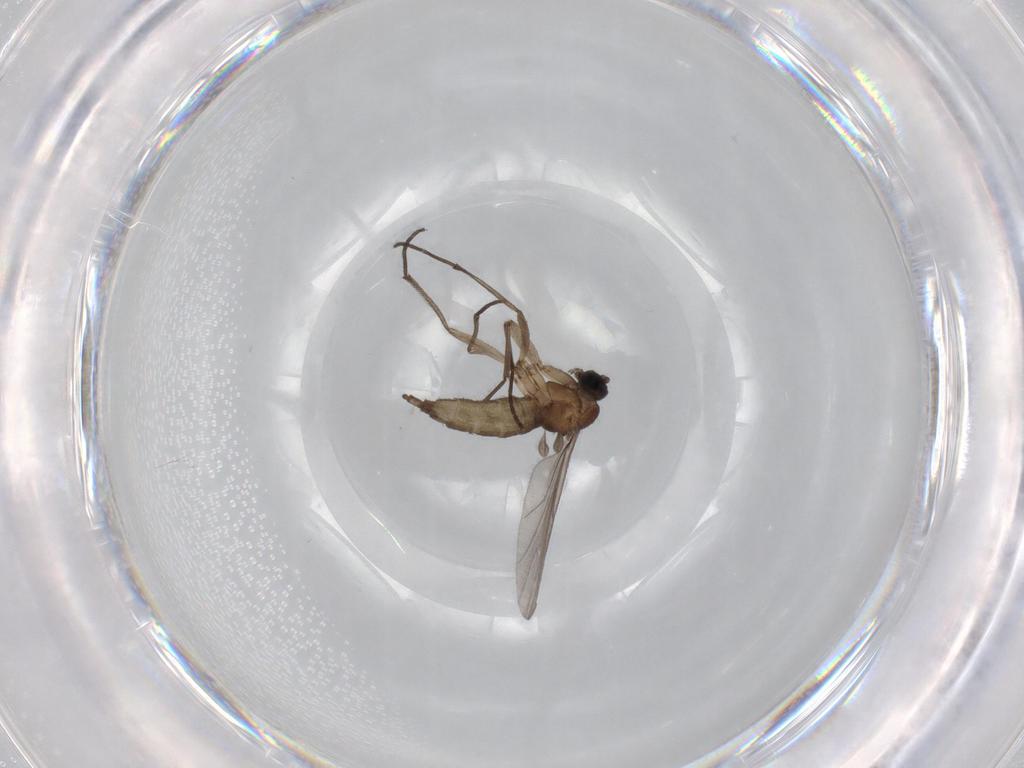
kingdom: Animalia
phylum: Arthropoda
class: Insecta
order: Diptera
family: Sciaridae
